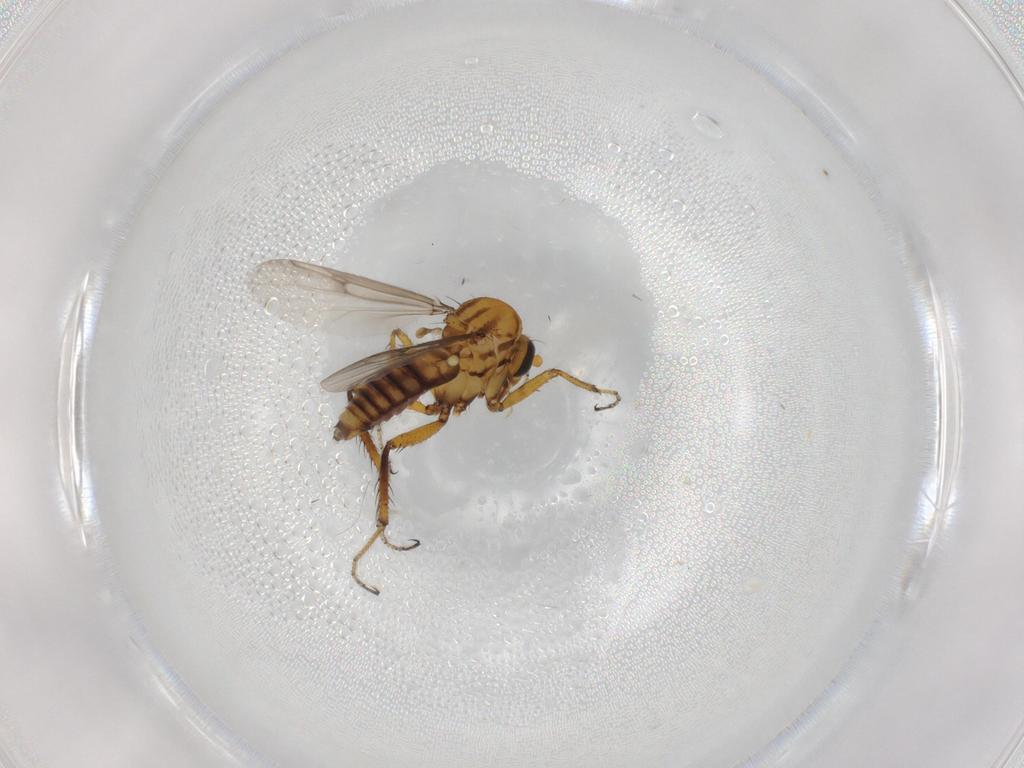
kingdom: Animalia
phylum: Arthropoda
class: Insecta
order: Diptera
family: Ceratopogonidae
